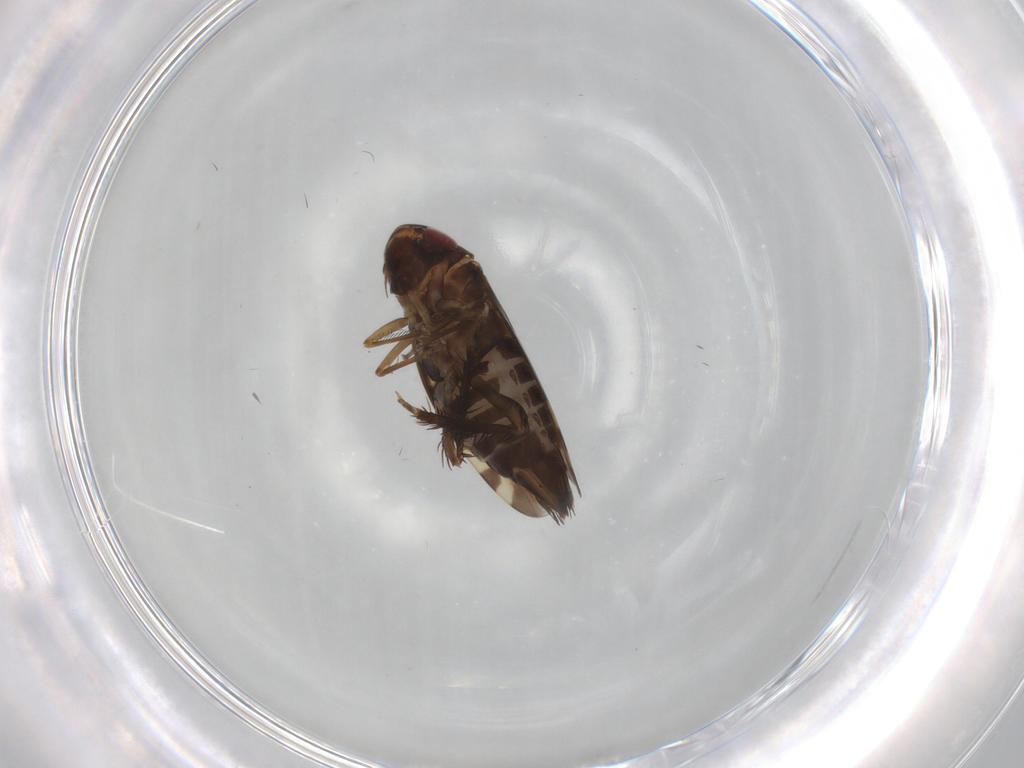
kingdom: Animalia
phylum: Arthropoda
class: Insecta
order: Hemiptera
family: Cicadellidae
